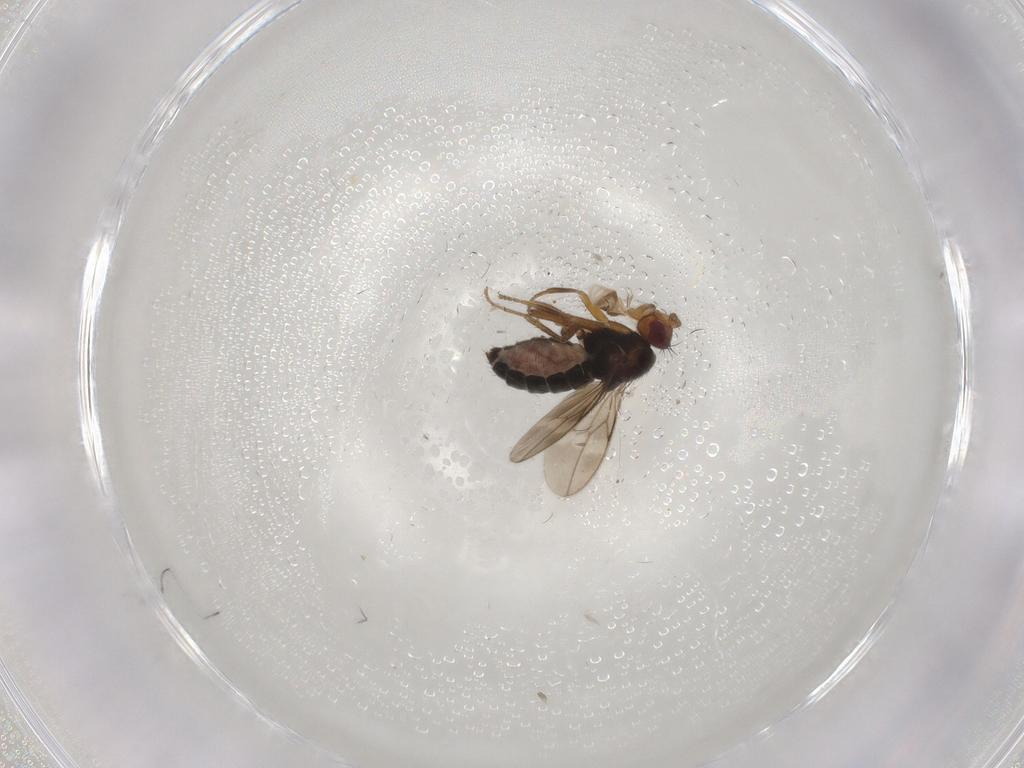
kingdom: Animalia
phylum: Arthropoda
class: Insecta
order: Diptera
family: Sphaeroceridae
